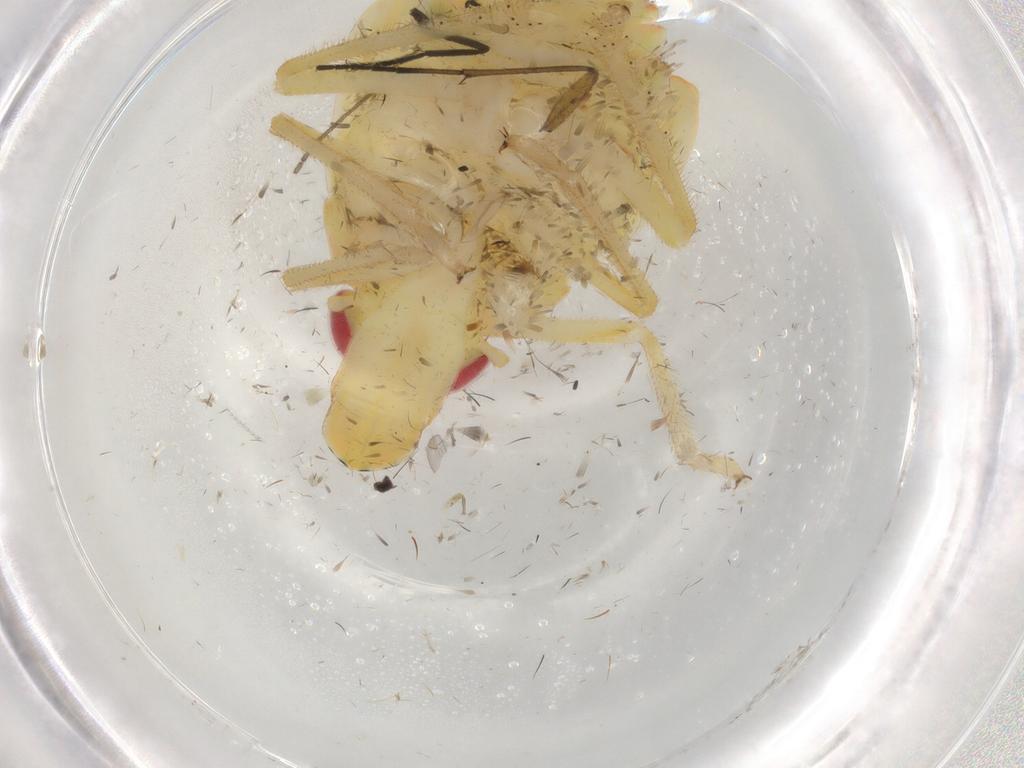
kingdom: Animalia
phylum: Arthropoda
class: Insecta
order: Hemiptera
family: Tropiduchidae
